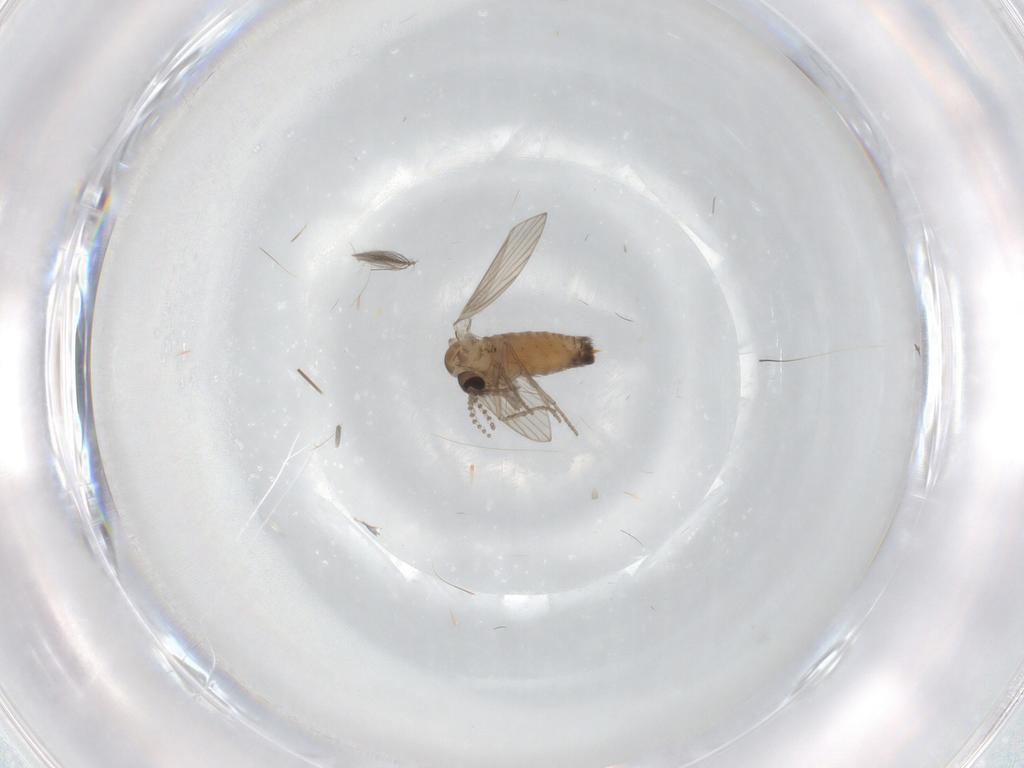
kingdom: Animalia
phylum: Arthropoda
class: Insecta
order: Diptera
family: Psychodidae
